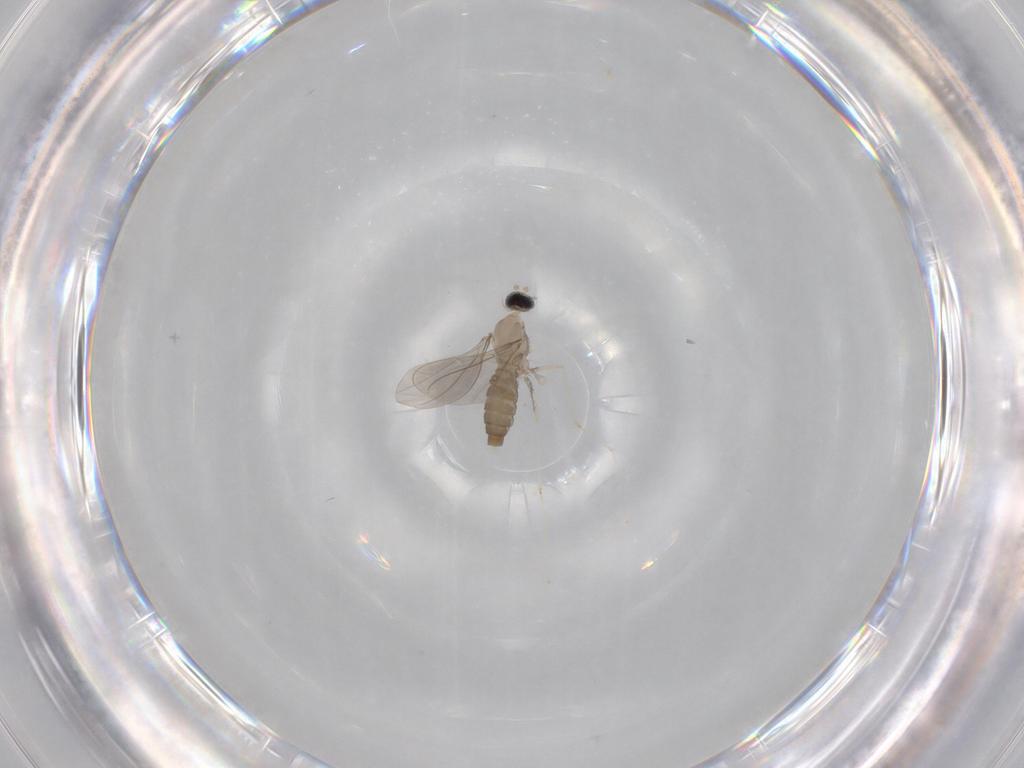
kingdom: Animalia
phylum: Arthropoda
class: Insecta
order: Diptera
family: Cecidomyiidae
